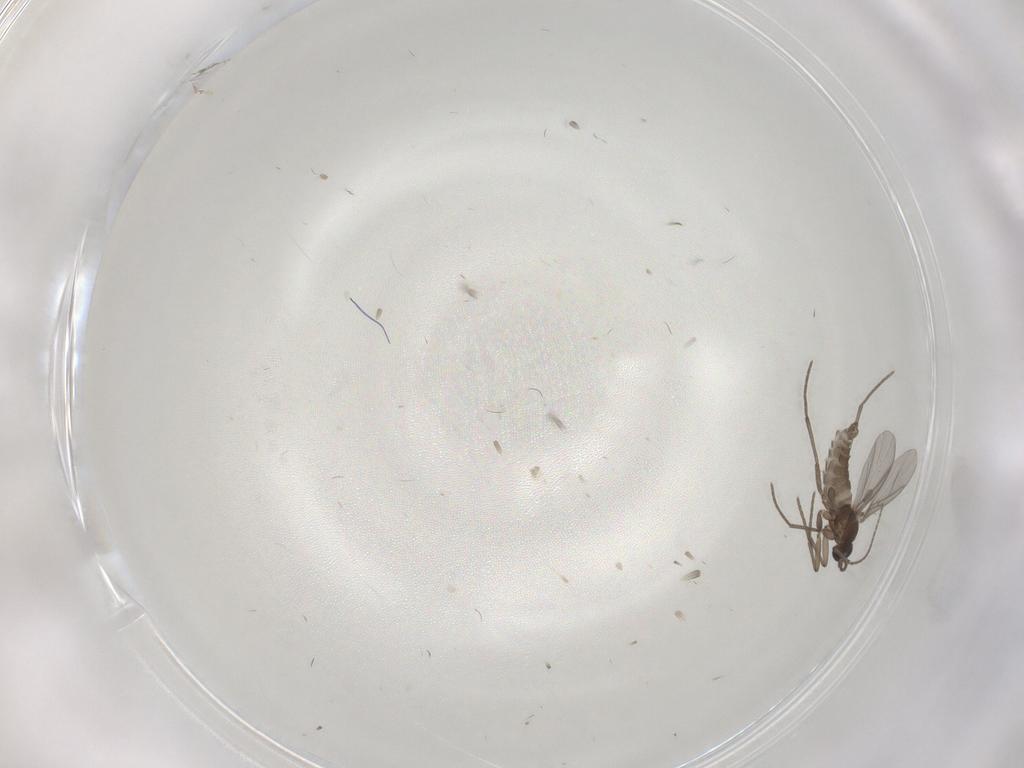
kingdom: Animalia
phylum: Arthropoda
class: Insecta
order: Diptera
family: Sciaridae
